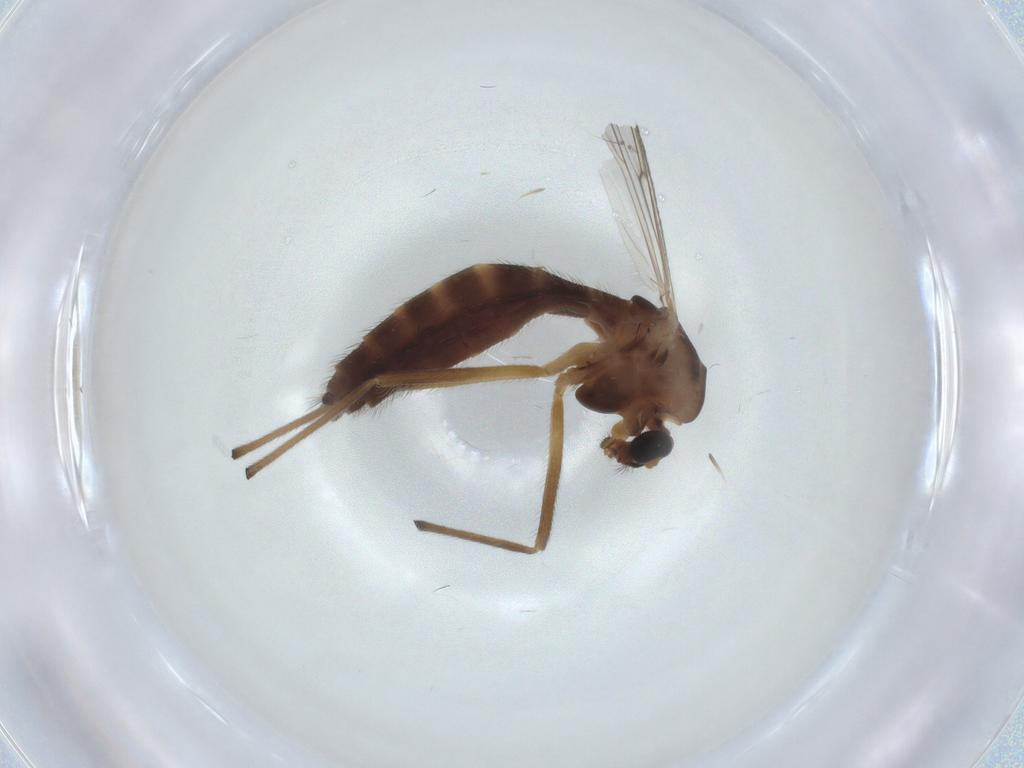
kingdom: Animalia
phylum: Arthropoda
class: Insecta
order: Diptera
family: Chironomidae
